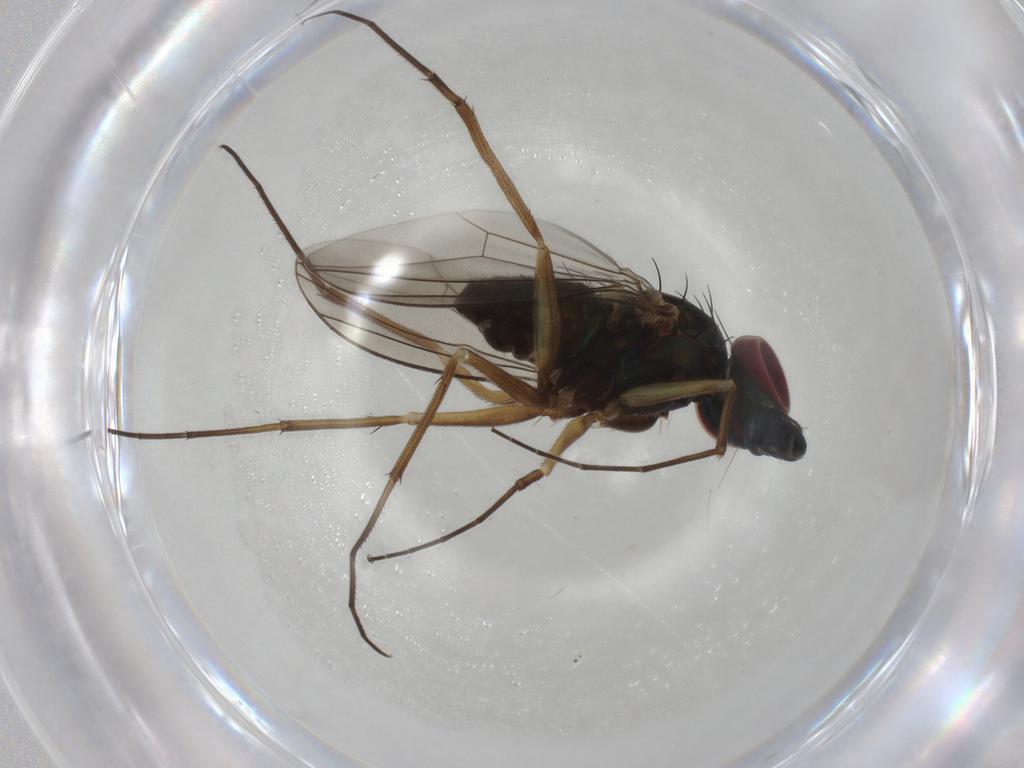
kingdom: Animalia
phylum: Arthropoda
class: Insecta
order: Diptera
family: Dolichopodidae
